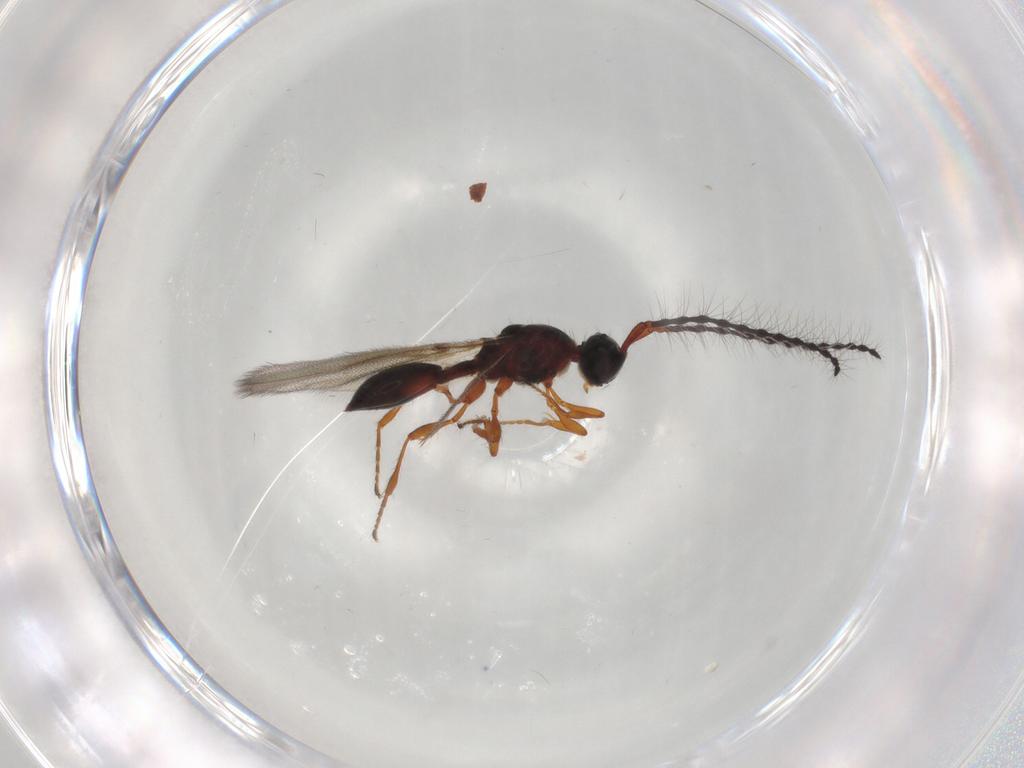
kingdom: Animalia
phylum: Arthropoda
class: Insecta
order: Hymenoptera
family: Diapriidae
